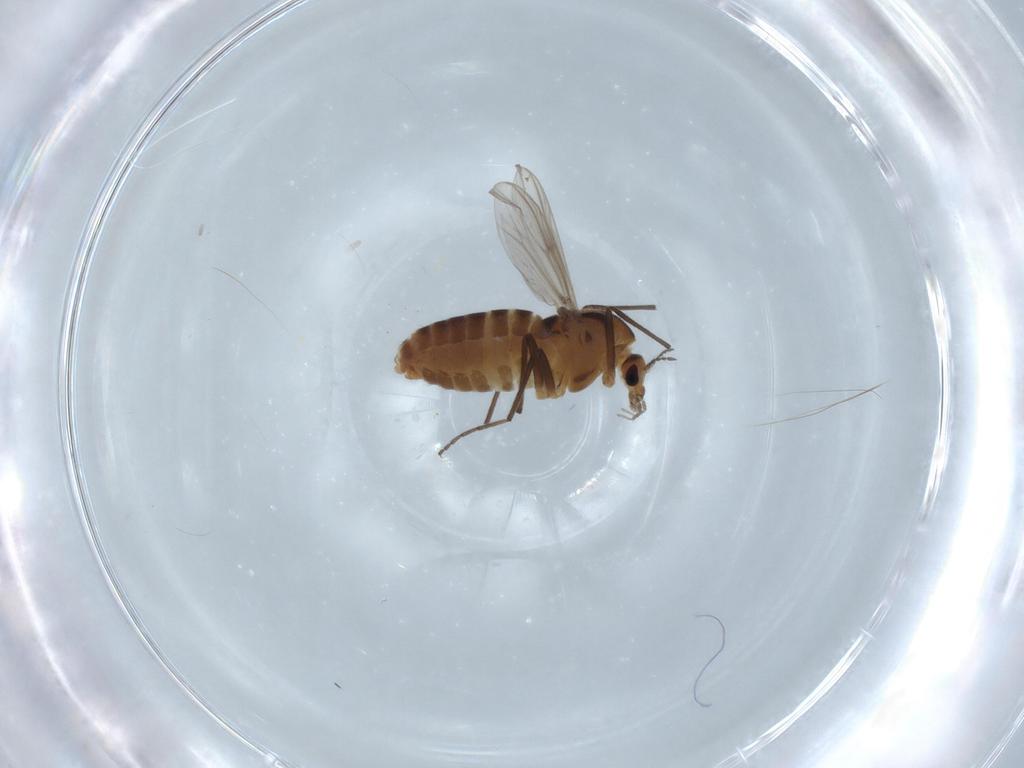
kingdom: Animalia
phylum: Arthropoda
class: Insecta
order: Diptera
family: Chironomidae
